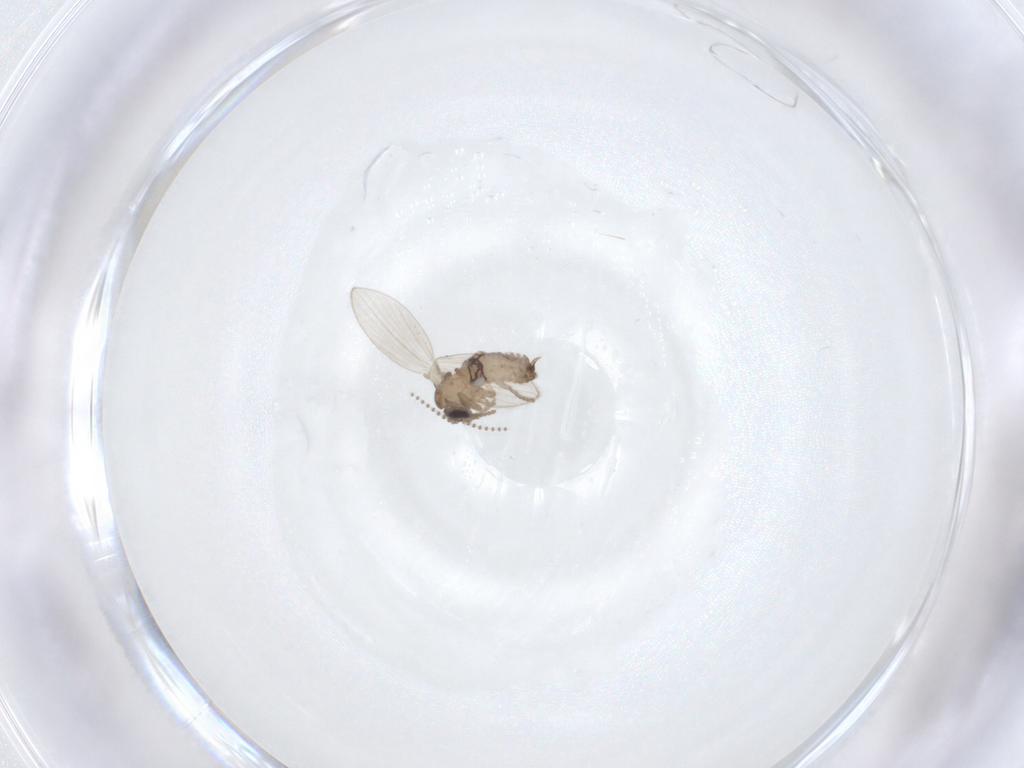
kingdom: Animalia
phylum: Arthropoda
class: Insecta
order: Diptera
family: Psychodidae
